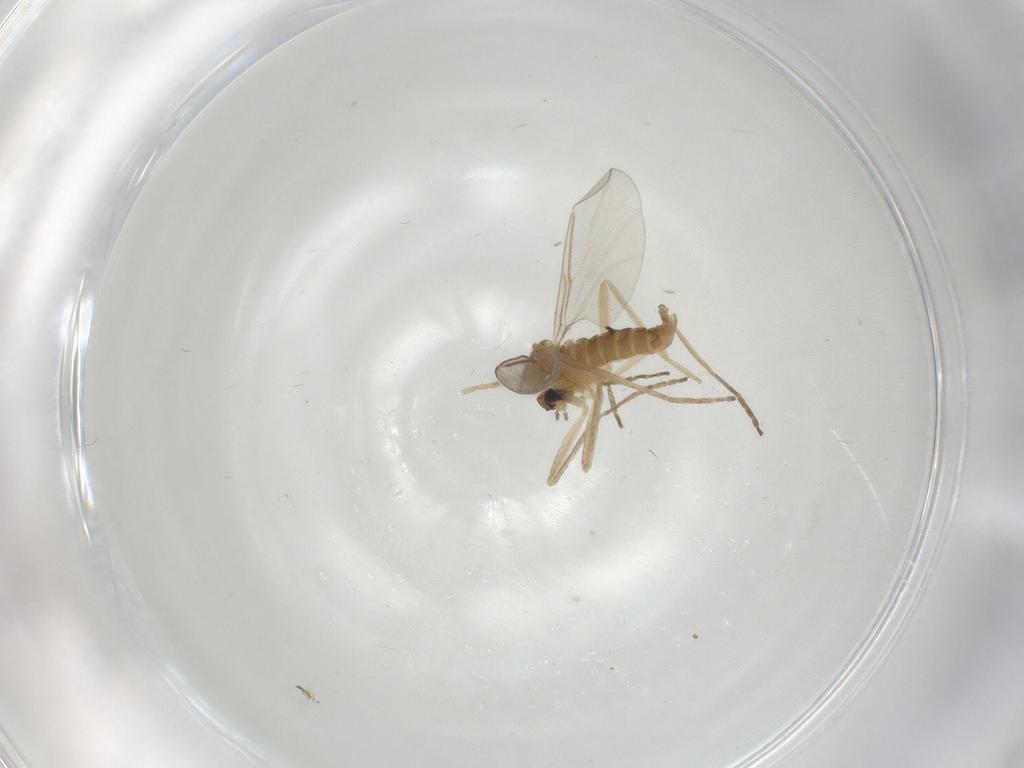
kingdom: Animalia
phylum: Arthropoda
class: Insecta
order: Diptera
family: Cecidomyiidae
